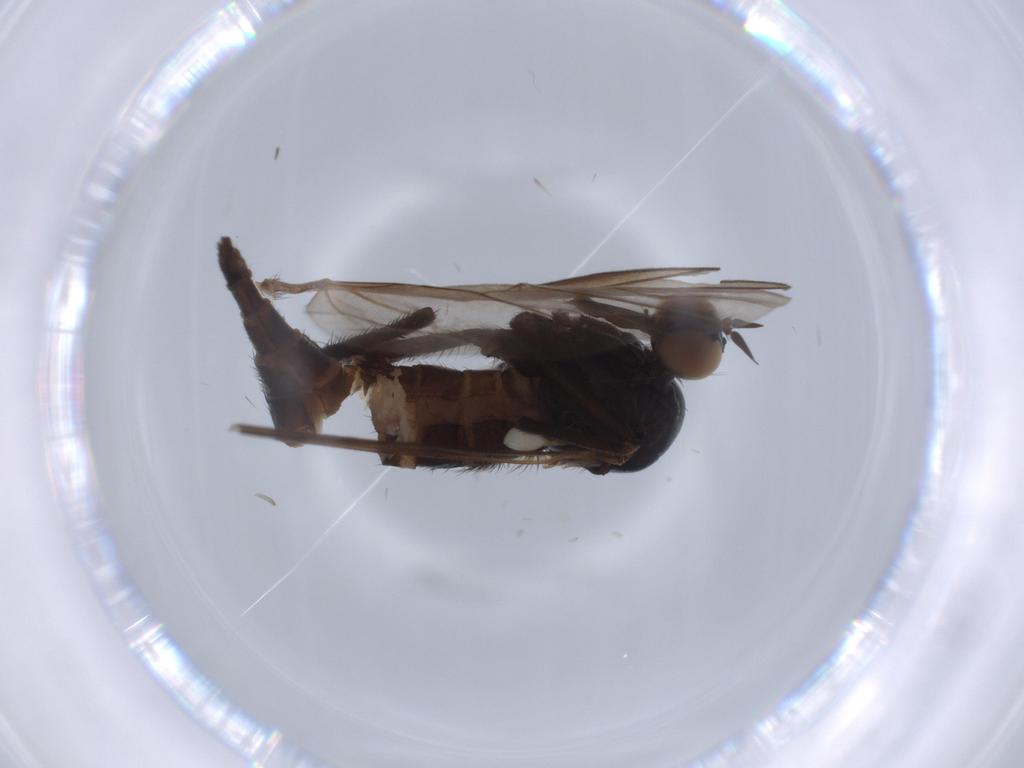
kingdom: Animalia
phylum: Arthropoda
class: Insecta
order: Diptera
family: Empididae
